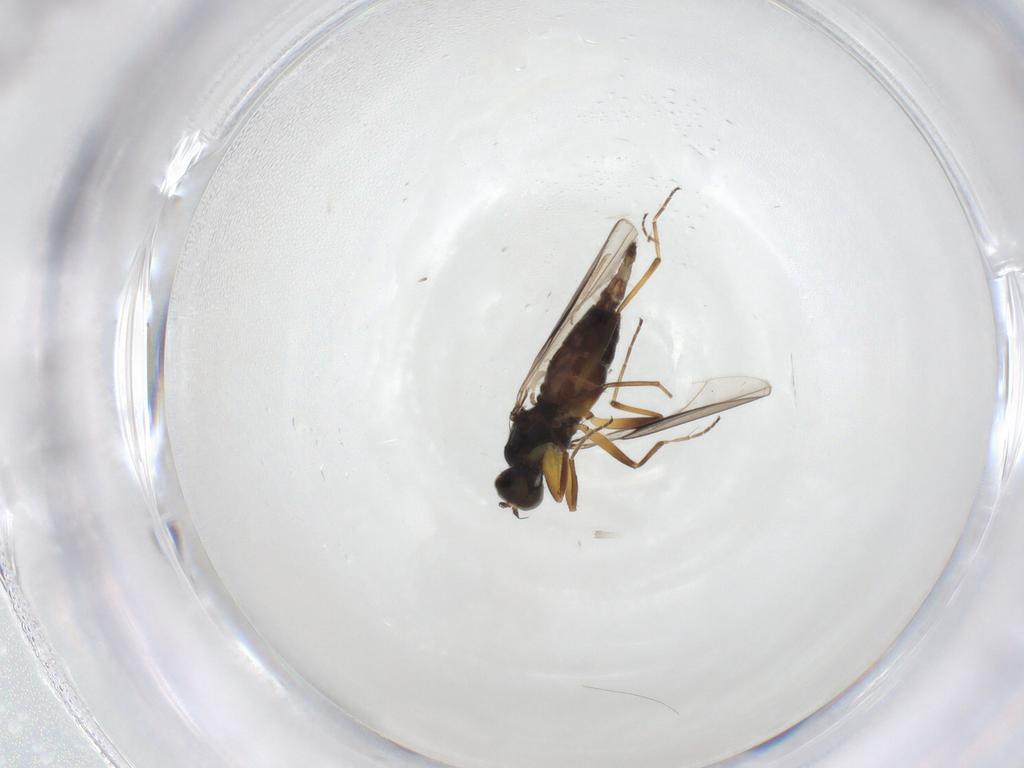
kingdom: Animalia
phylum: Arthropoda
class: Insecta
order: Diptera
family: Hybotidae
